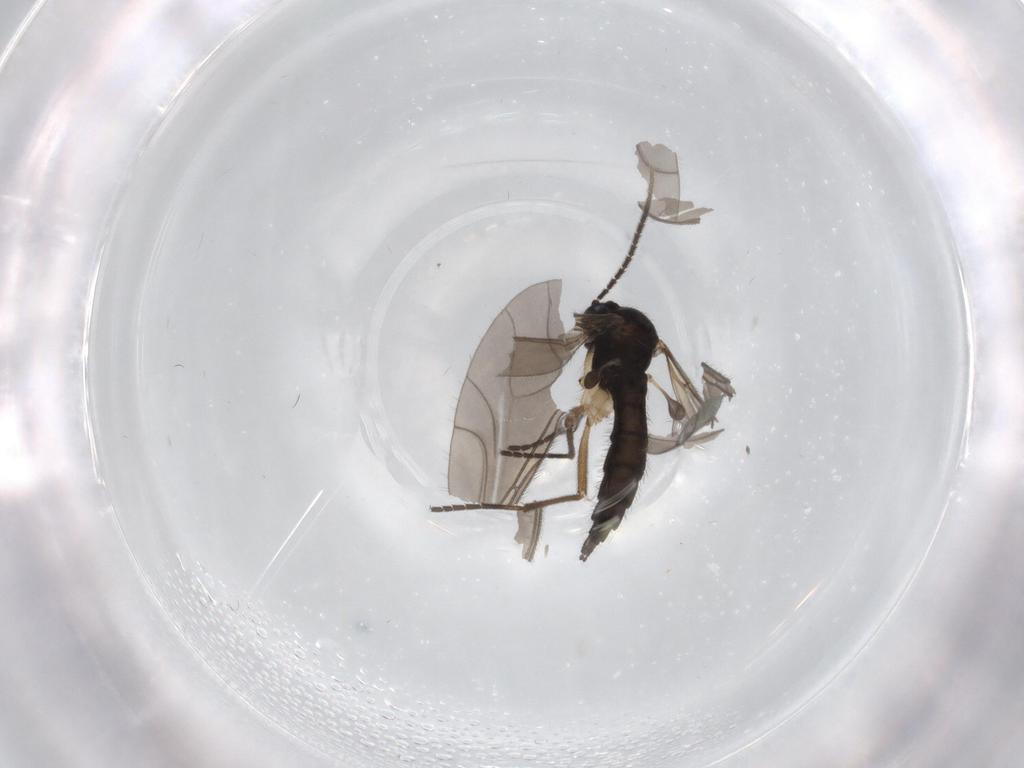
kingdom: Animalia
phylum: Arthropoda
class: Insecta
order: Diptera
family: Sciaridae
